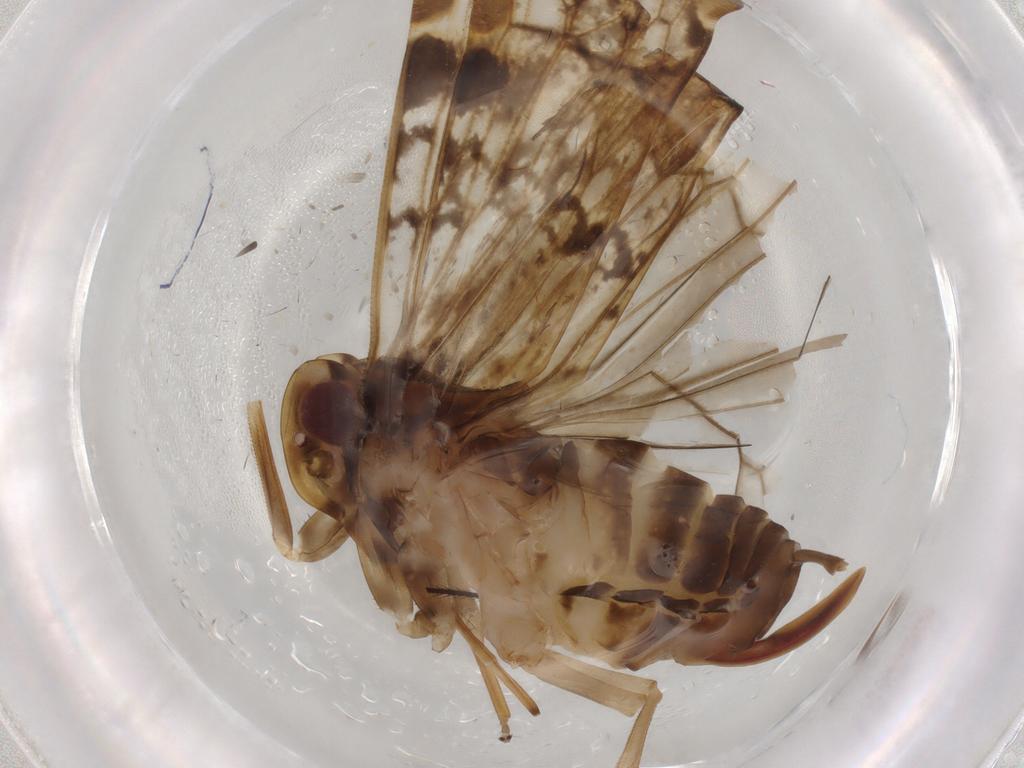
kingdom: Animalia
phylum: Arthropoda
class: Insecta
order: Hemiptera
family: Cixiidae
